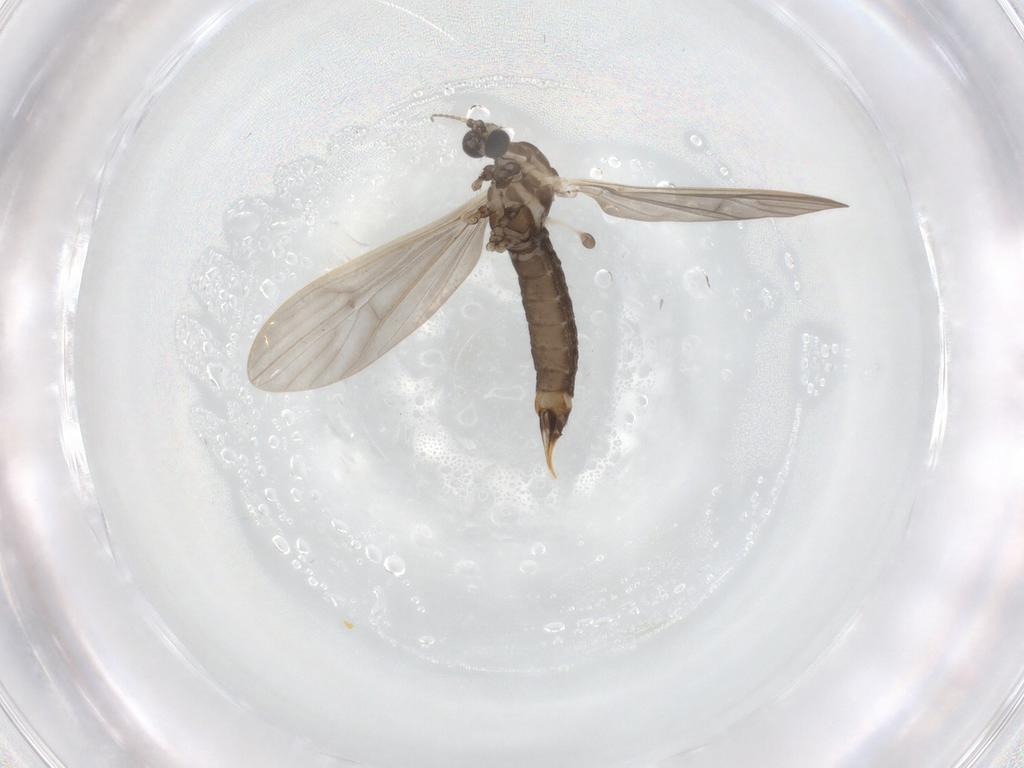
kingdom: Animalia
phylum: Arthropoda
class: Insecta
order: Diptera
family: Limoniidae
